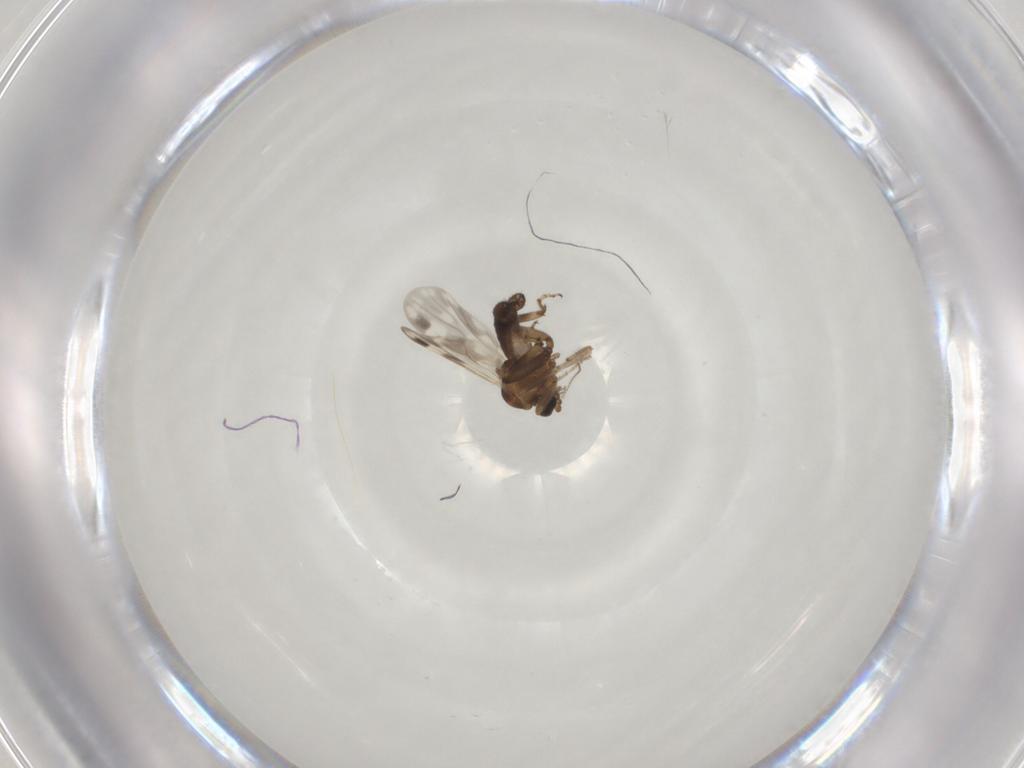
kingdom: Animalia
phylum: Arthropoda
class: Insecta
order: Diptera
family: Ceratopogonidae
